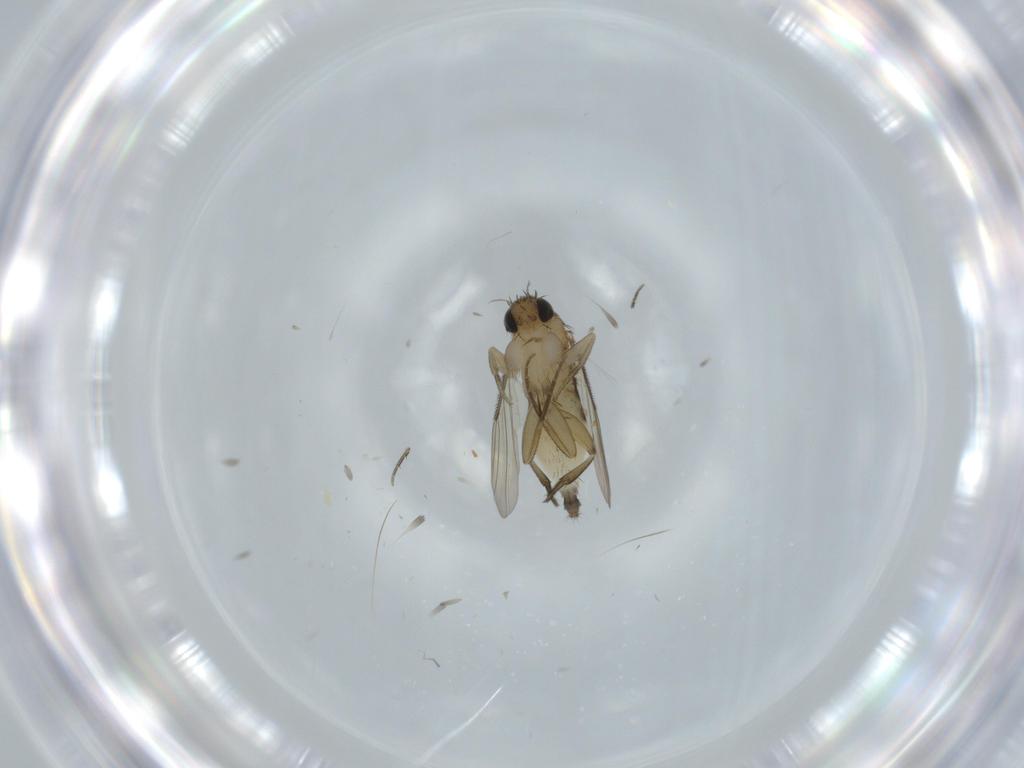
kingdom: Animalia
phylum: Arthropoda
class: Insecta
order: Diptera
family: Phoridae
